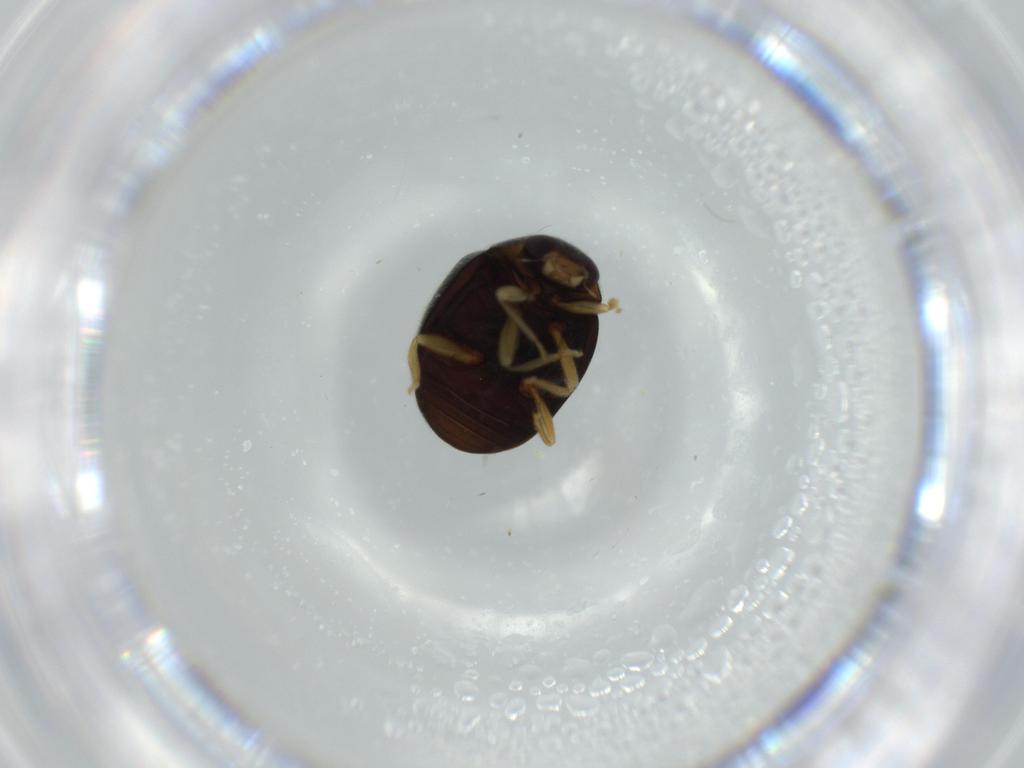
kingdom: Animalia
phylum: Arthropoda
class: Insecta
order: Coleoptera
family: Coccinellidae
